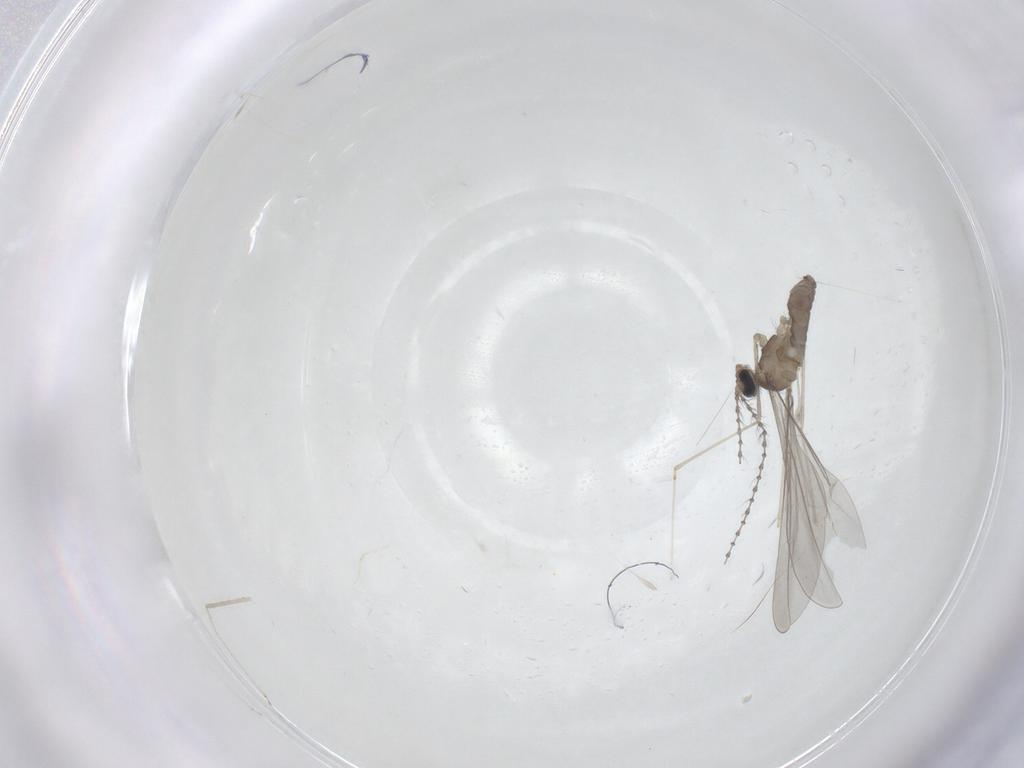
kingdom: Animalia
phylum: Arthropoda
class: Insecta
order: Diptera
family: Cecidomyiidae
